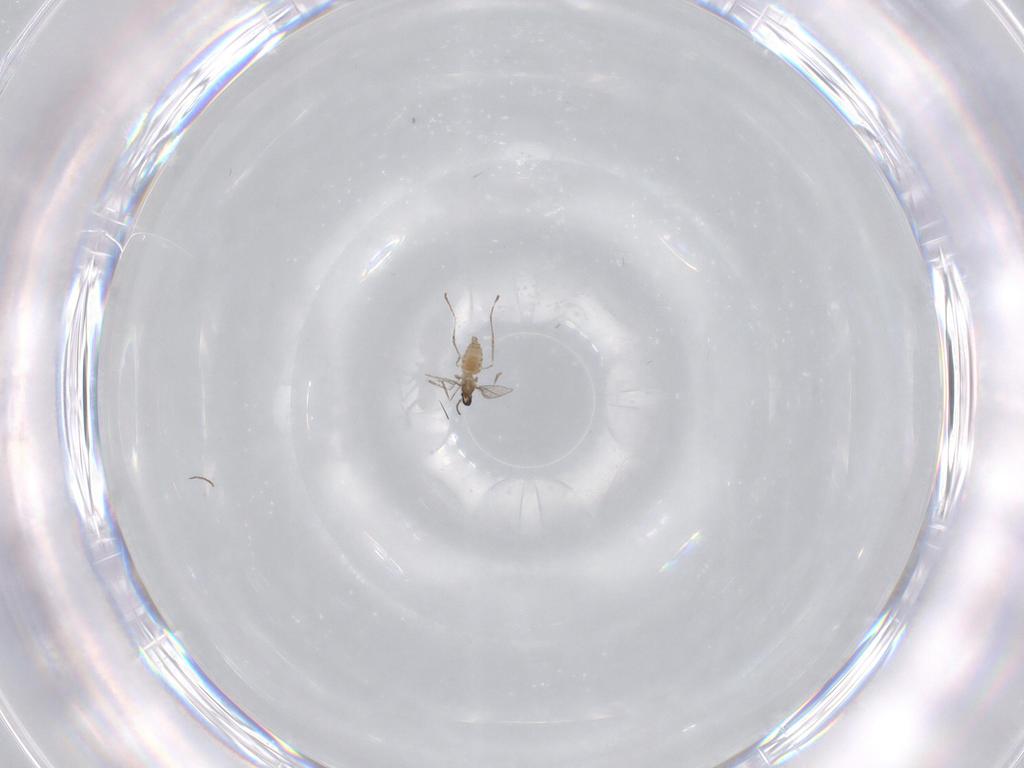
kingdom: Animalia
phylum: Arthropoda
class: Insecta
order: Diptera
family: Cecidomyiidae
